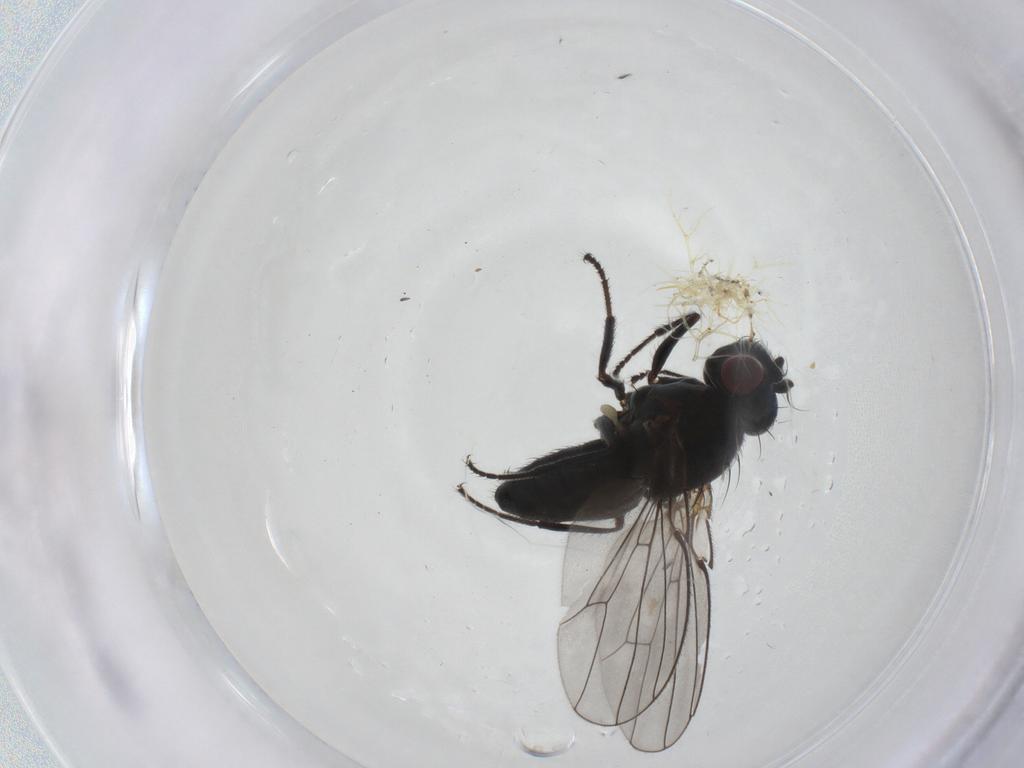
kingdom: Animalia
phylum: Arthropoda
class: Insecta
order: Diptera
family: Ephydridae
